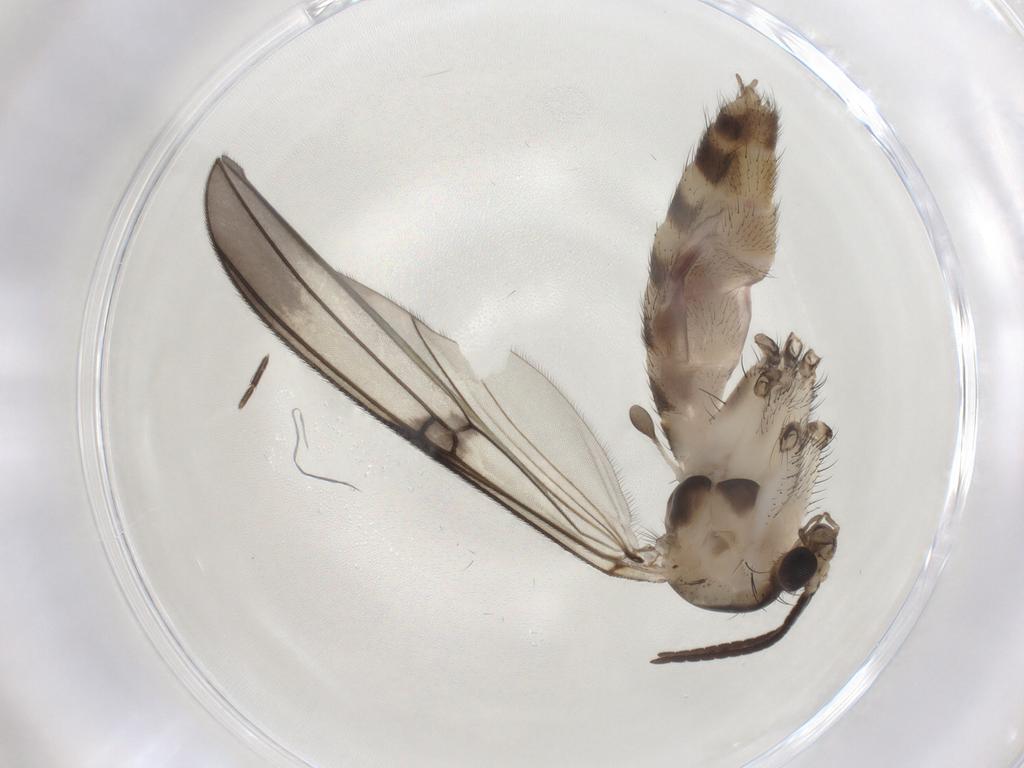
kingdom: Animalia
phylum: Arthropoda
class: Insecta
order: Diptera
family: Mycetophilidae
